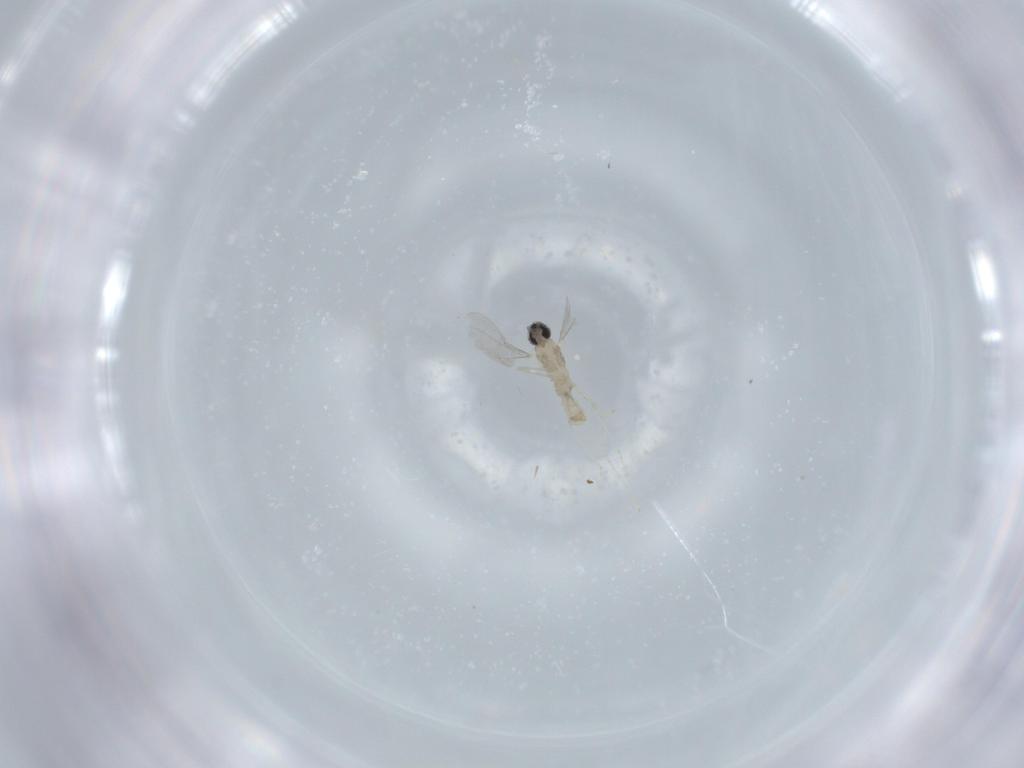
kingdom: Animalia
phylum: Arthropoda
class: Insecta
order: Diptera
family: Cecidomyiidae
